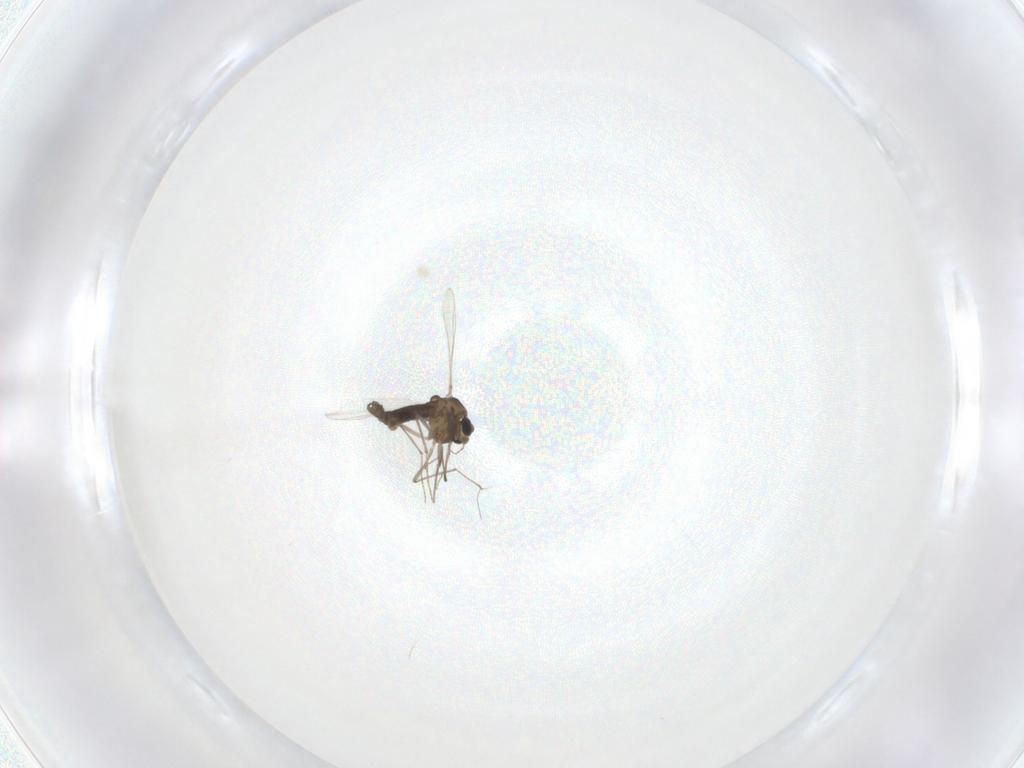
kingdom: Animalia
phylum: Arthropoda
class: Insecta
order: Diptera
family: Chironomidae
